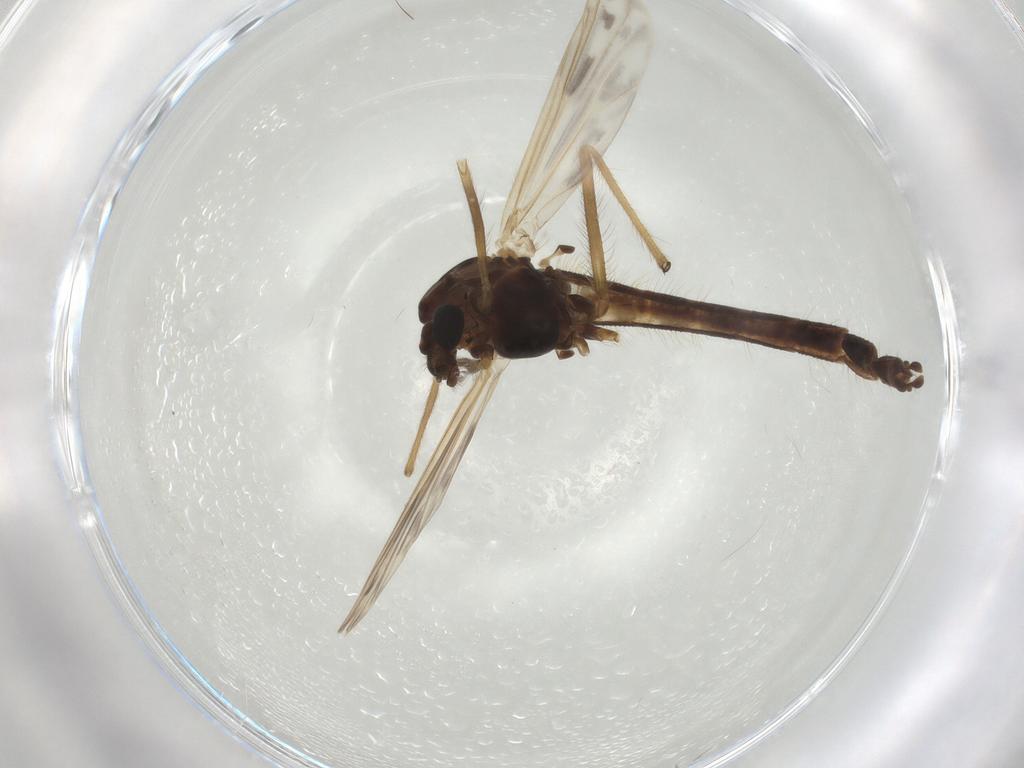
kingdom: Animalia
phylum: Arthropoda
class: Insecta
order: Diptera
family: Chironomidae
